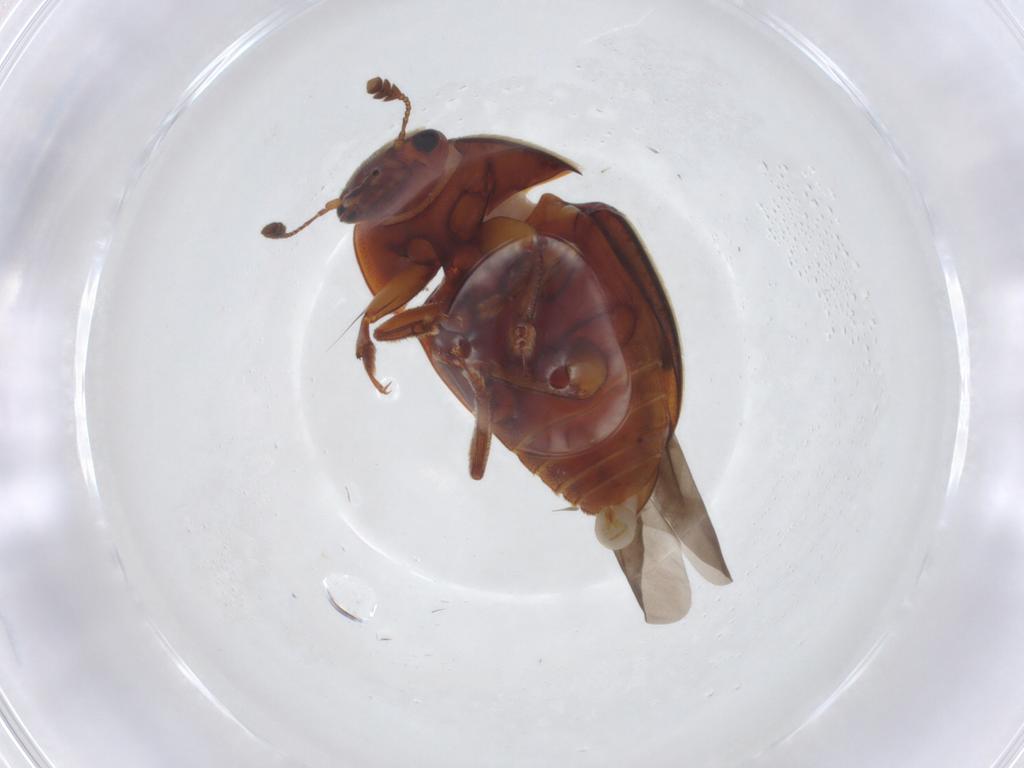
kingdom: Animalia
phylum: Arthropoda
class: Insecta
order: Coleoptera
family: Nitidulidae
